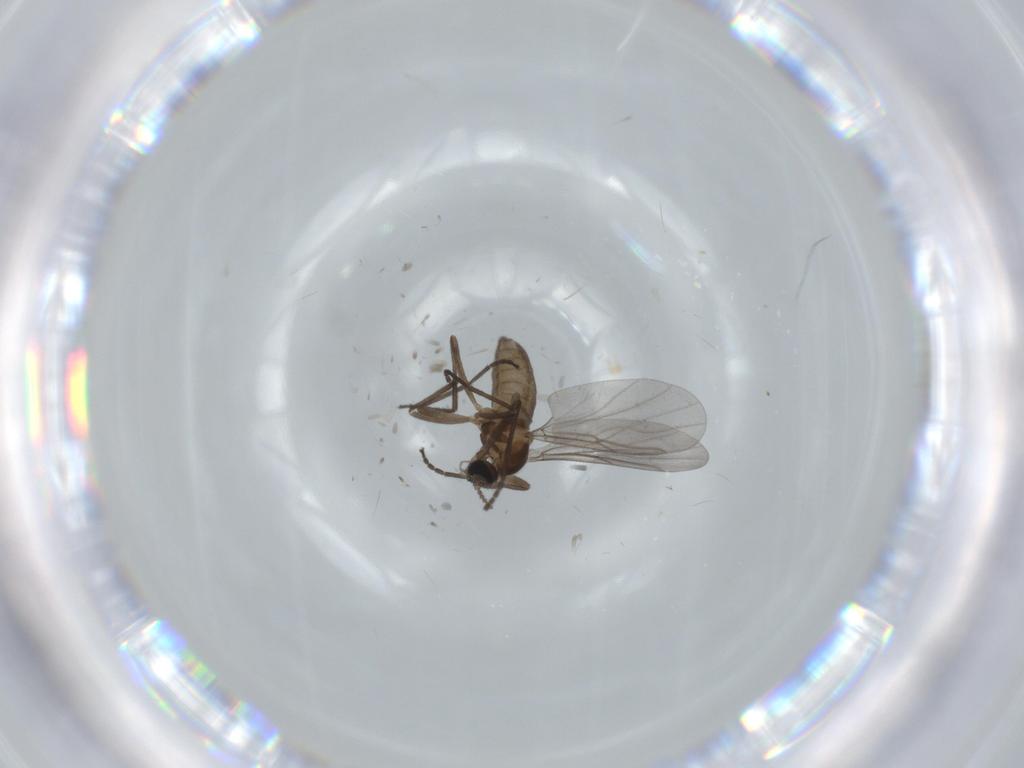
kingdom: Animalia
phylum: Arthropoda
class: Insecta
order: Diptera
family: Cecidomyiidae
